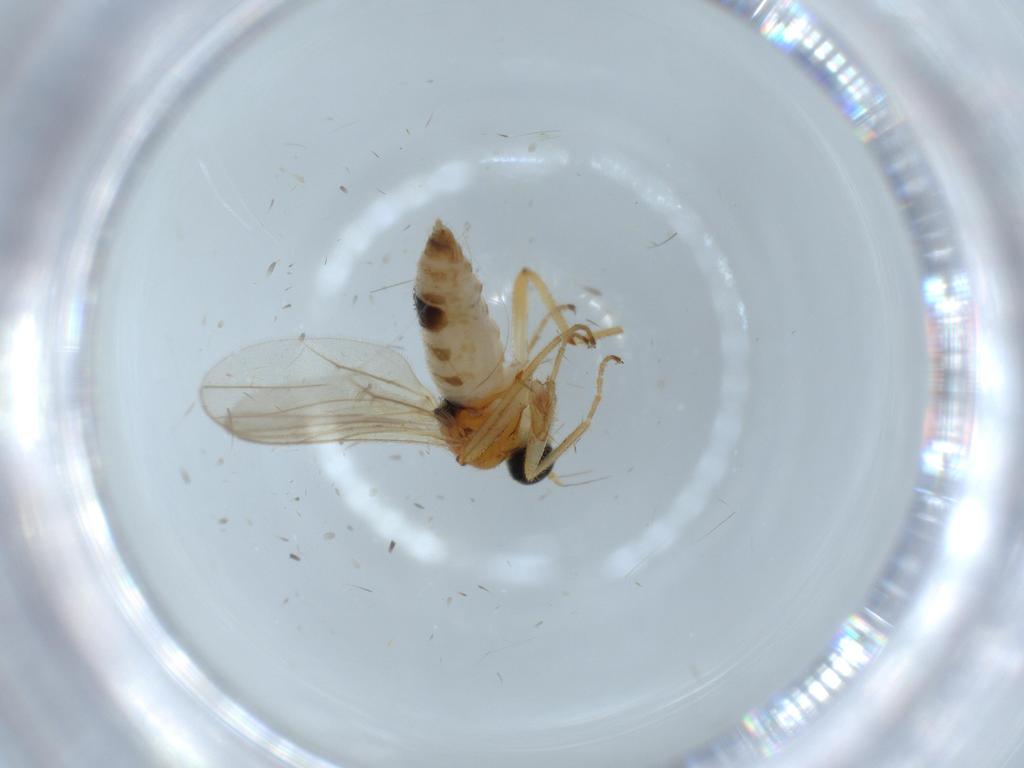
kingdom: Animalia
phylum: Arthropoda
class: Insecta
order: Diptera
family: Hybotidae
